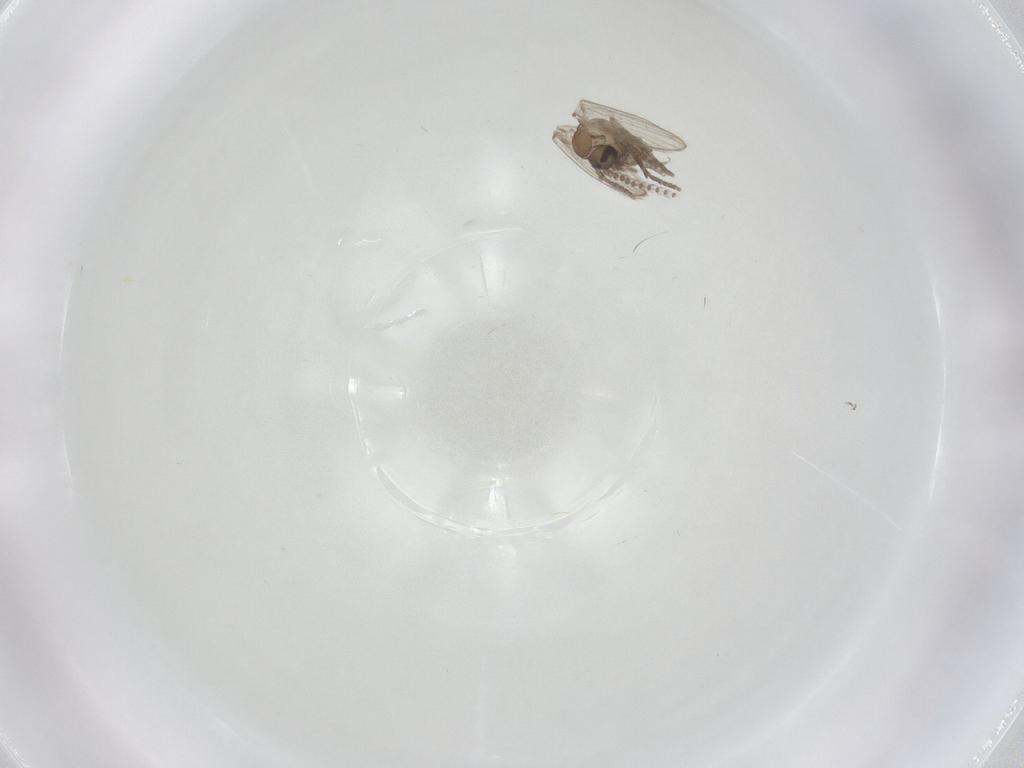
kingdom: Animalia
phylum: Arthropoda
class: Insecta
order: Diptera
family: Psychodidae
